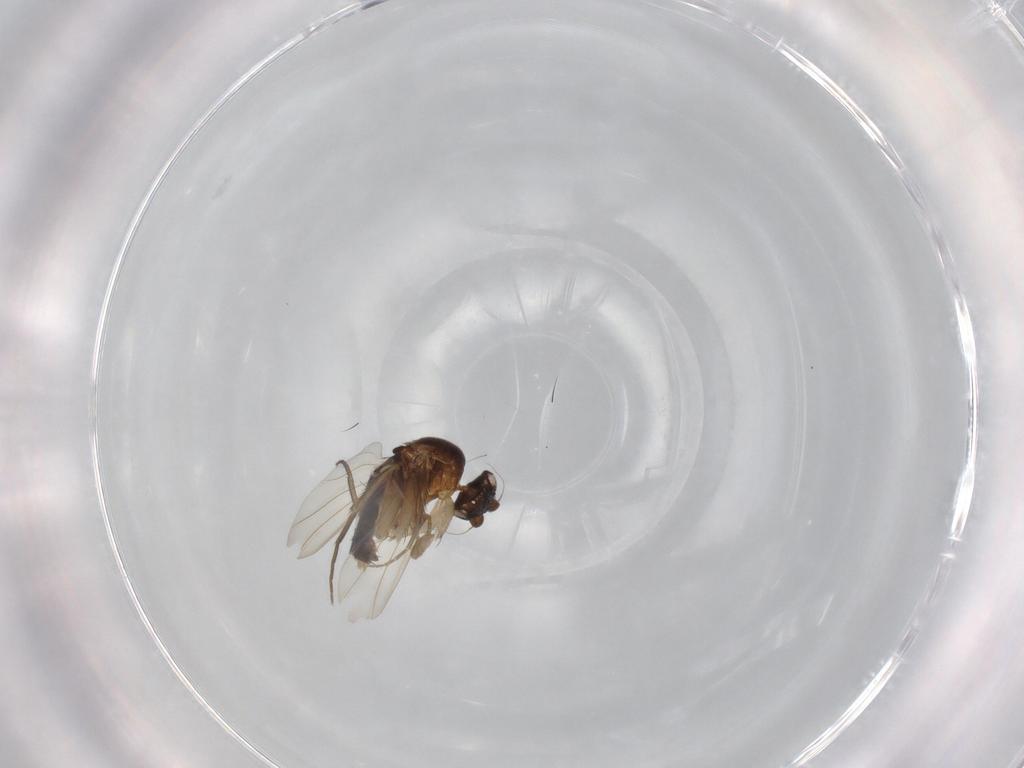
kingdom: Animalia
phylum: Arthropoda
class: Insecta
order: Diptera
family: Phoridae
